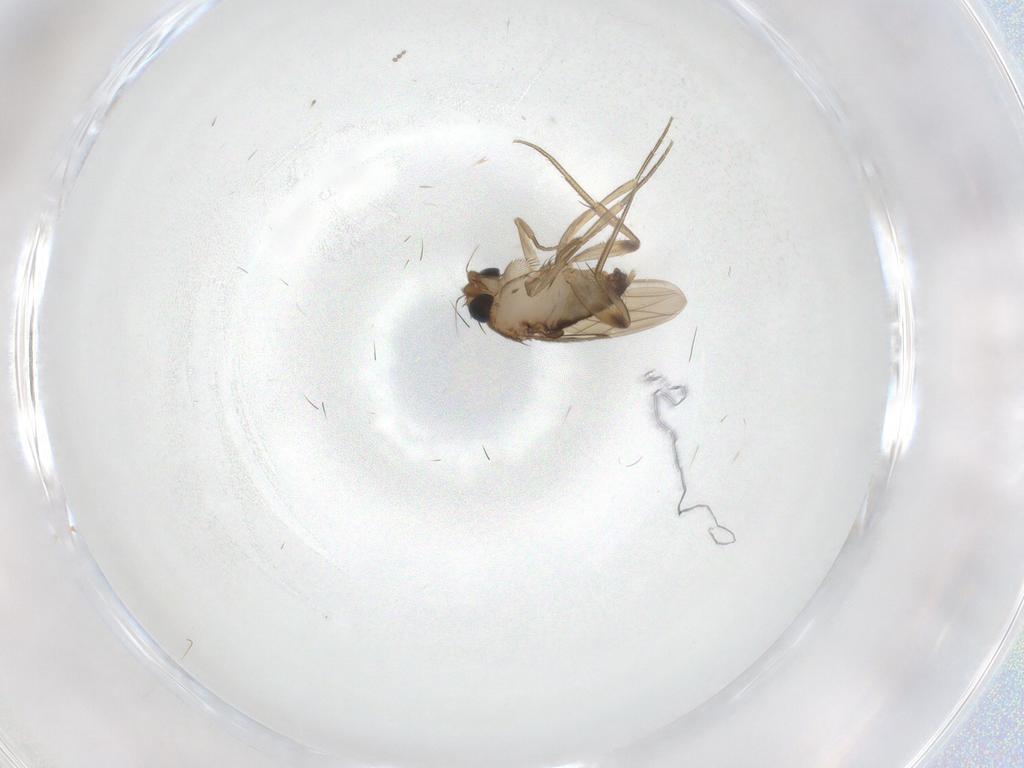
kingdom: Animalia
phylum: Arthropoda
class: Insecta
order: Diptera
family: Phoridae
